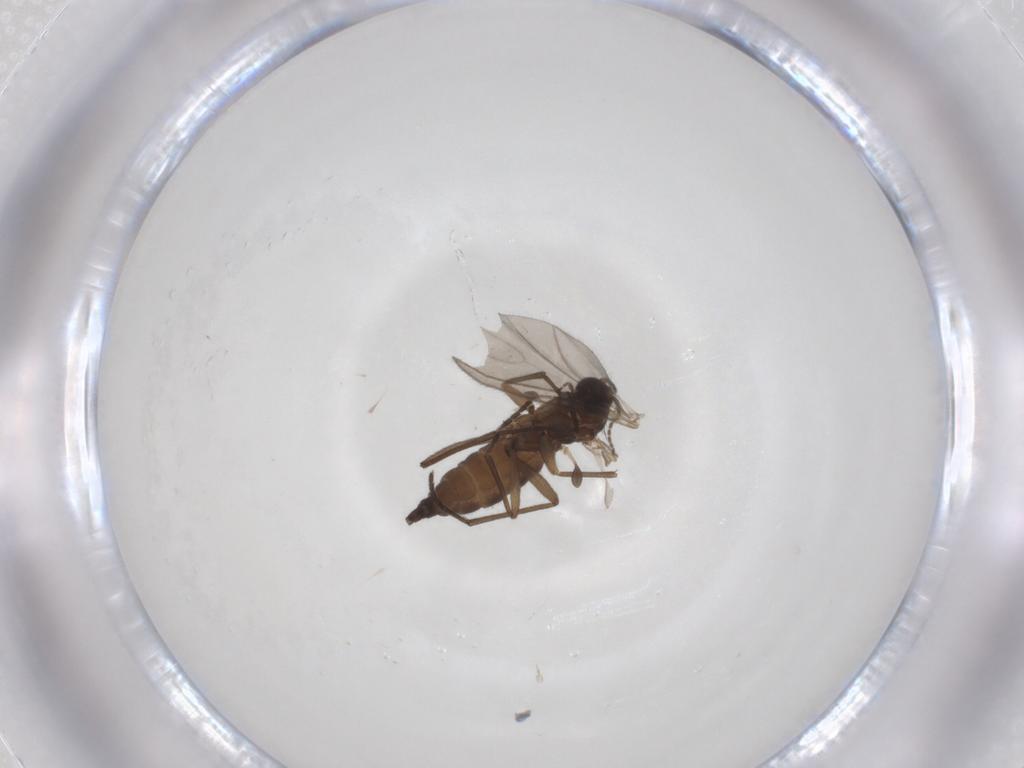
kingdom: Animalia
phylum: Arthropoda
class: Insecta
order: Diptera
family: Sciaridae
